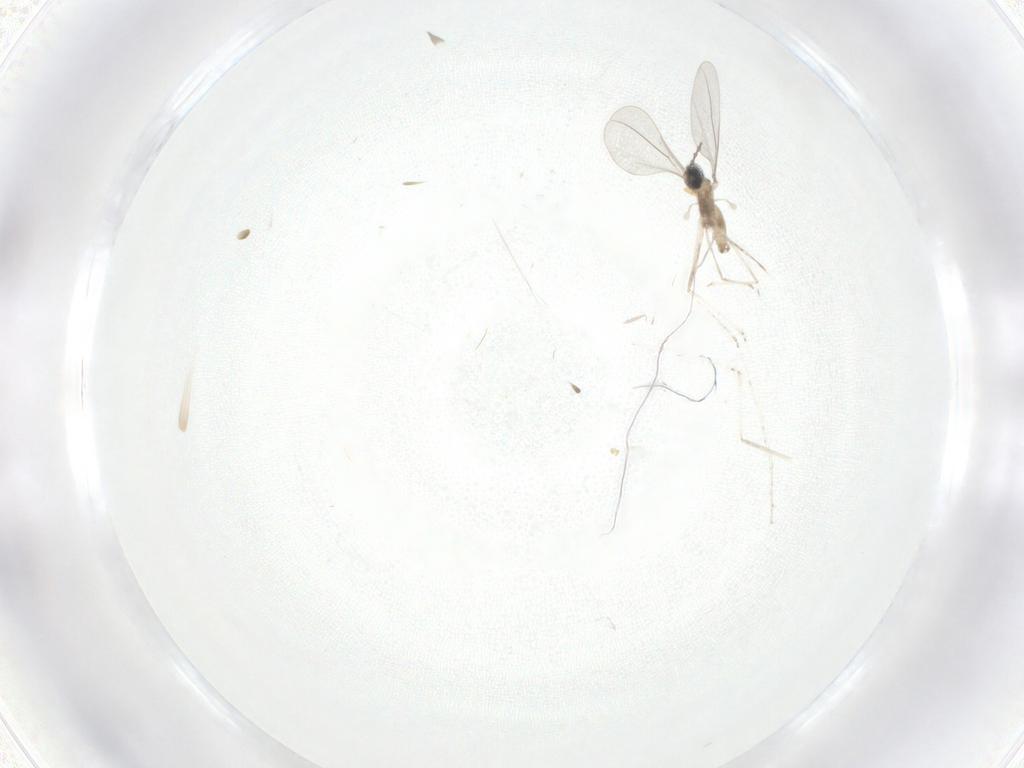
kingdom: Animalia
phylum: Arthropoda
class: Insecta
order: Diptera
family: Cecidomyiidae
